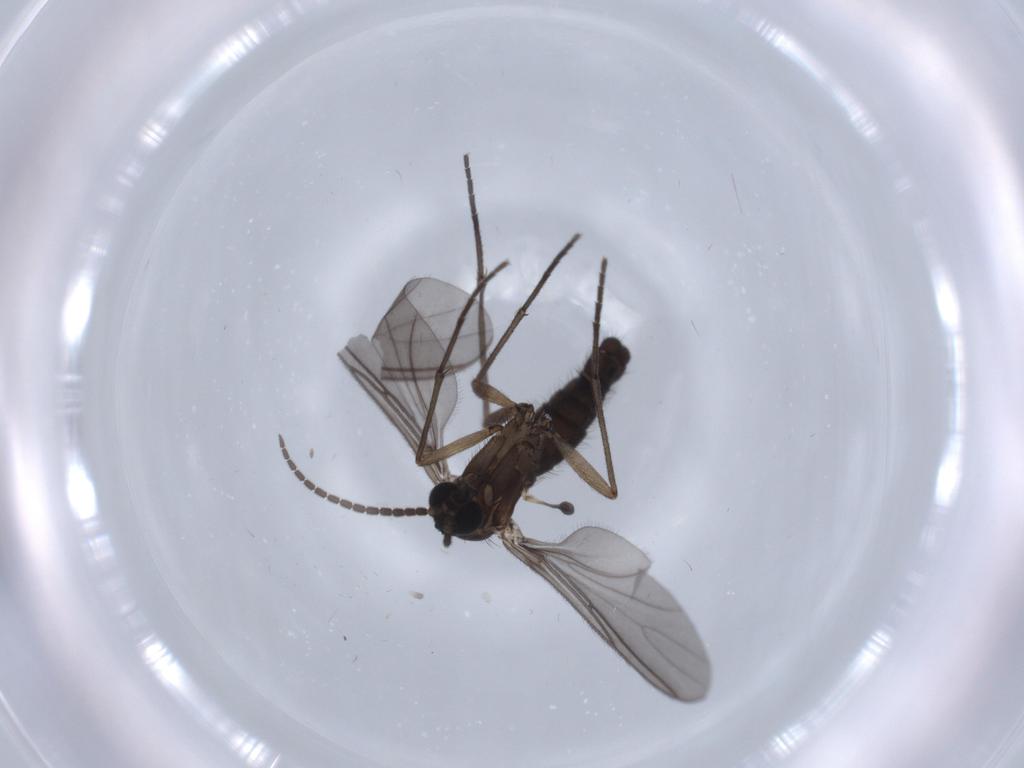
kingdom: Animalia
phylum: Arthropoda
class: Insecta
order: Diptera
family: Sciaridae
